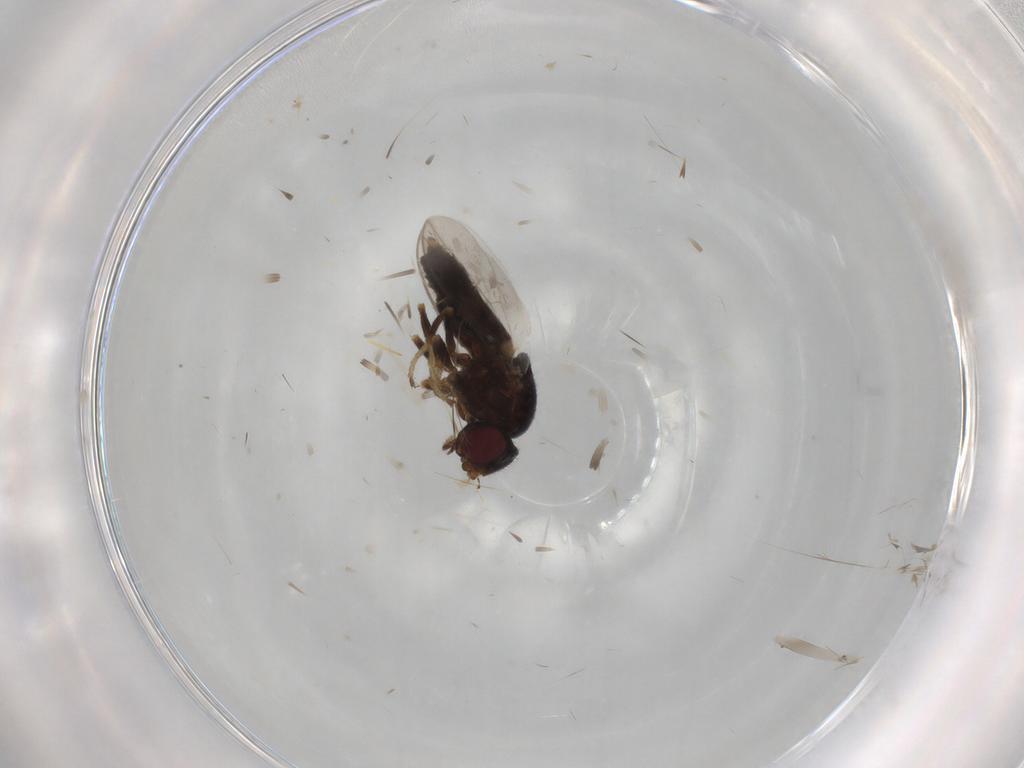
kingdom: Animalia
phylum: Arthropoda
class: Insecta
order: Diptera
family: Chloropidae
